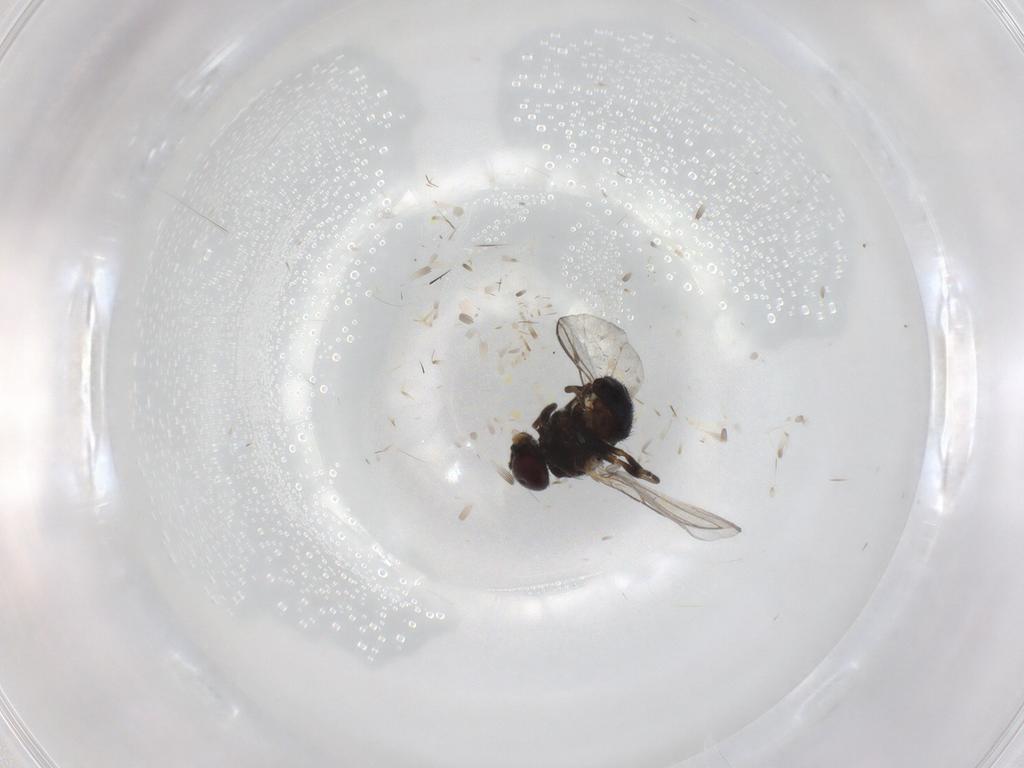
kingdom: Animalia
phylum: Arthropoda
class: Insecta
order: Diptera
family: Agromyzidae
